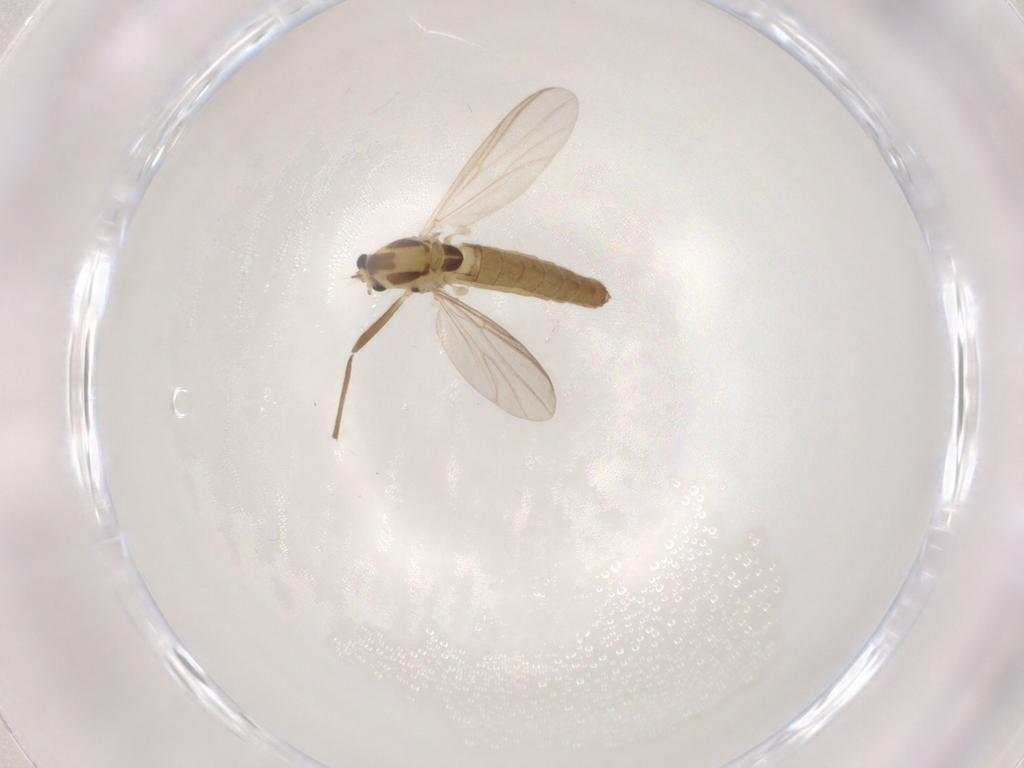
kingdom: Animalia
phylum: Arthropoda
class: Insecta
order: Diptera
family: Chironomidae
